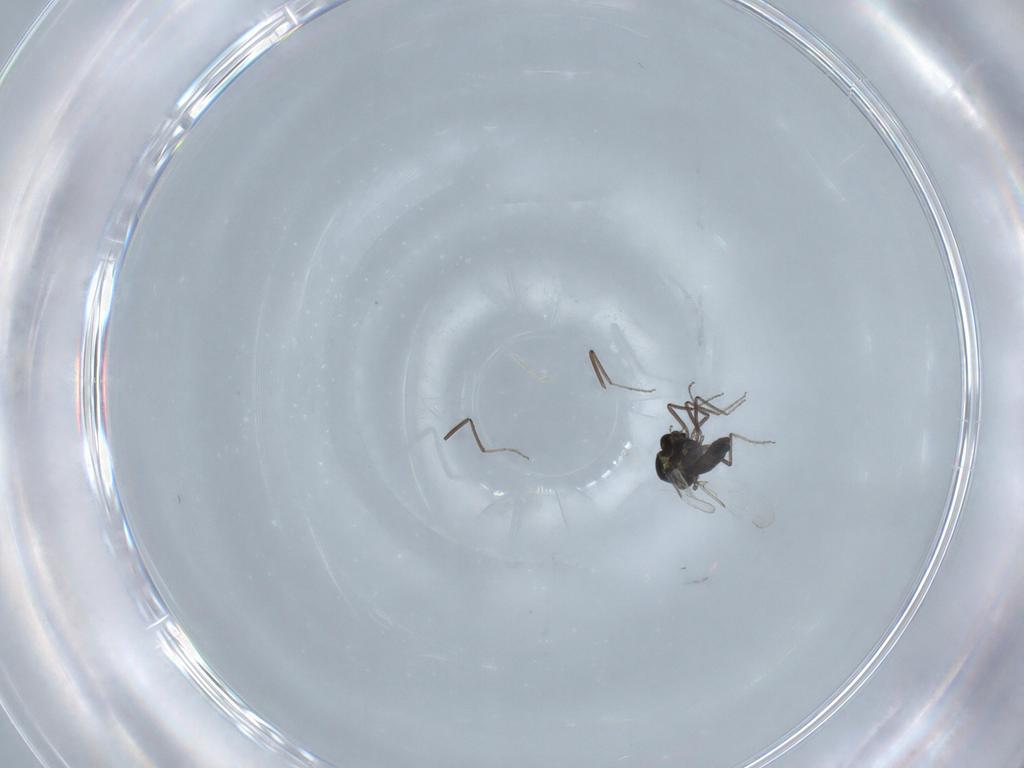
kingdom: Animalia
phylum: Arthropoda
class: Insecta
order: Diptera
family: Ceratopogonidae
